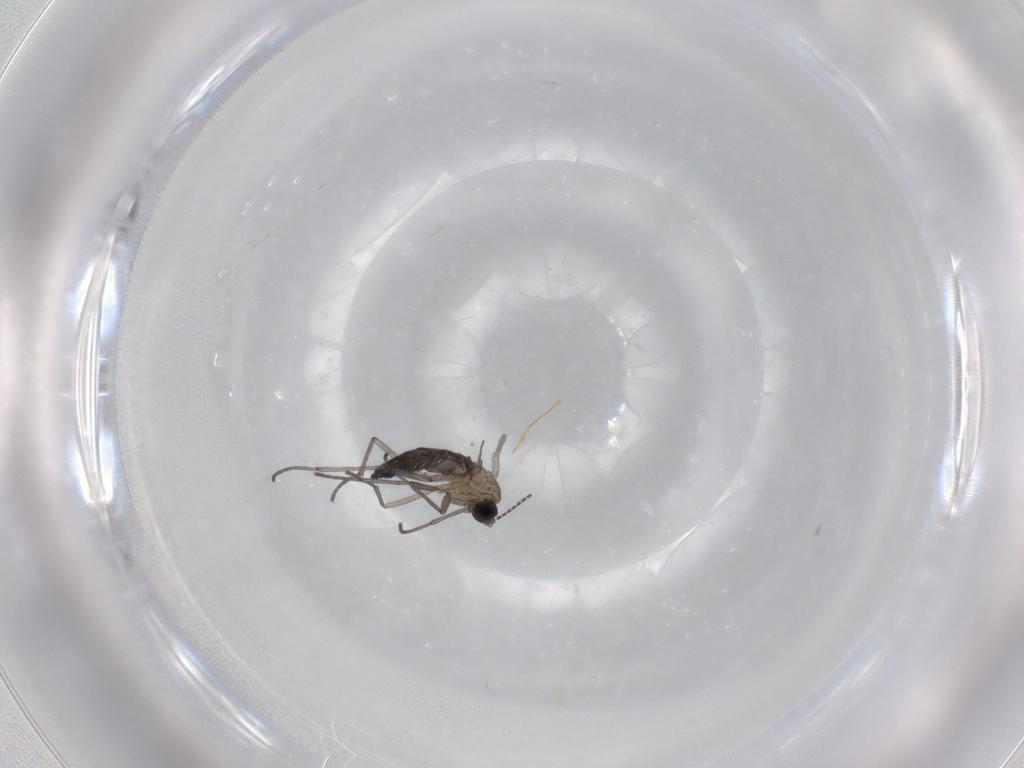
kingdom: Animalia
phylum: Arthropoda
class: Insecta
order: Diptera
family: Sciaridae
